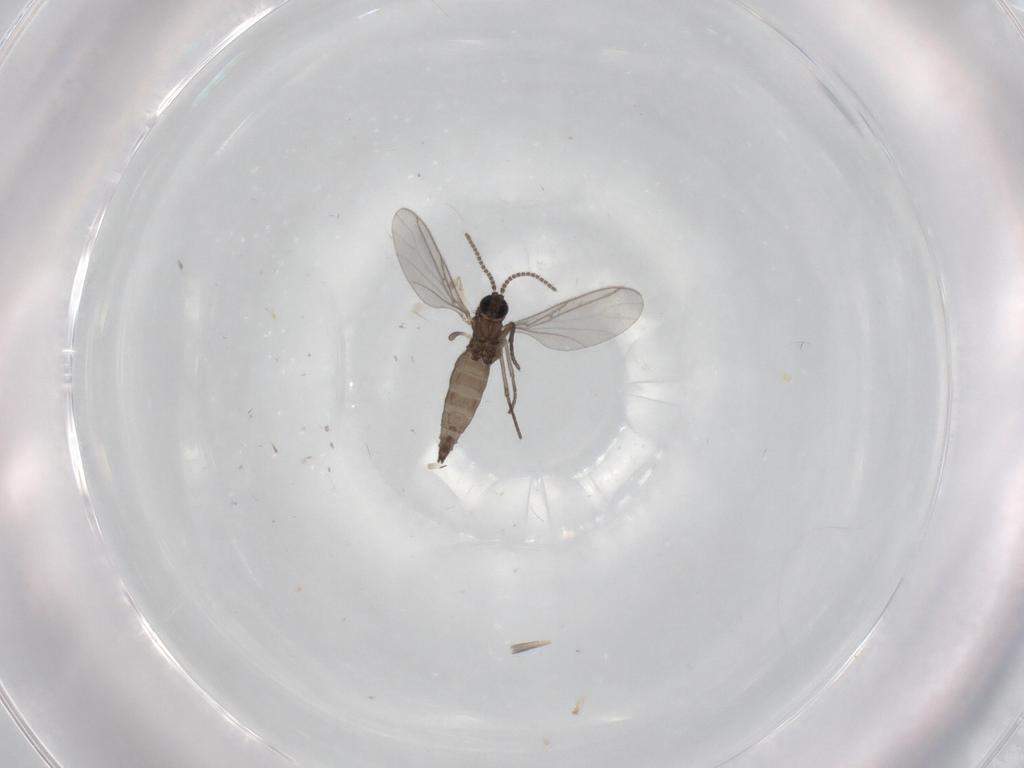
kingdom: Animalia
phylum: Arthropoda
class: Insecta
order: Diptera
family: Chironomidae
